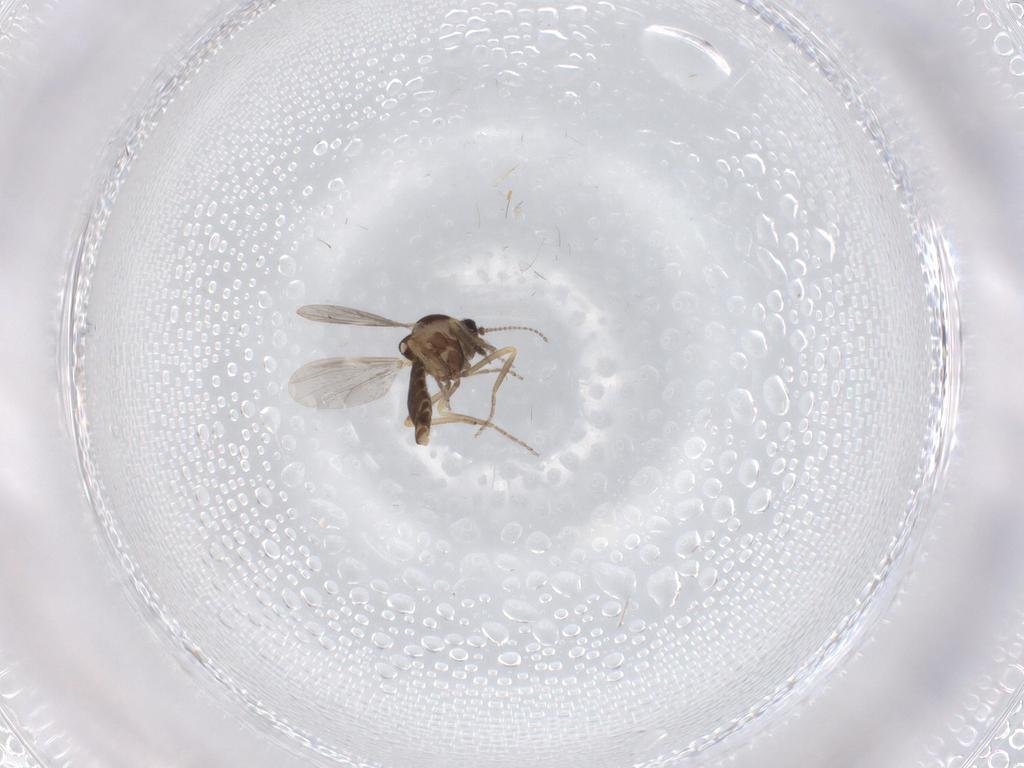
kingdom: Animalia
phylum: Arthropoda
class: Insecta
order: Diptera
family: Ceratopogonidae
